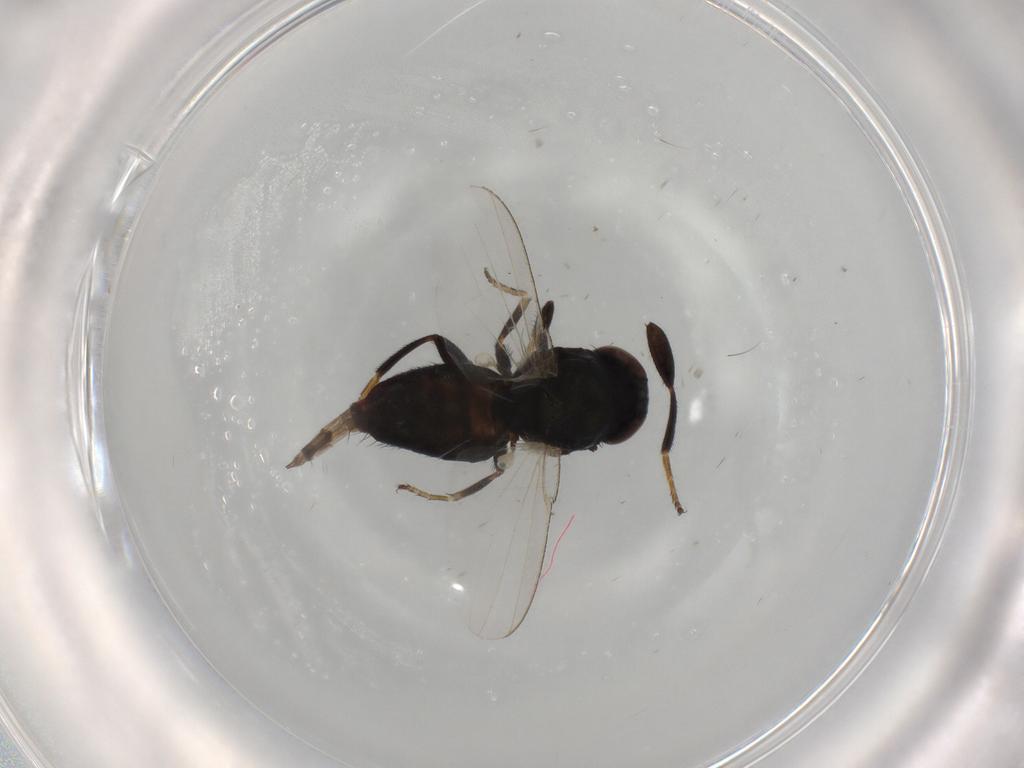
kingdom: Animalia
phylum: Arthropoda
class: Insecta
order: Diptera
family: Milichiidae
